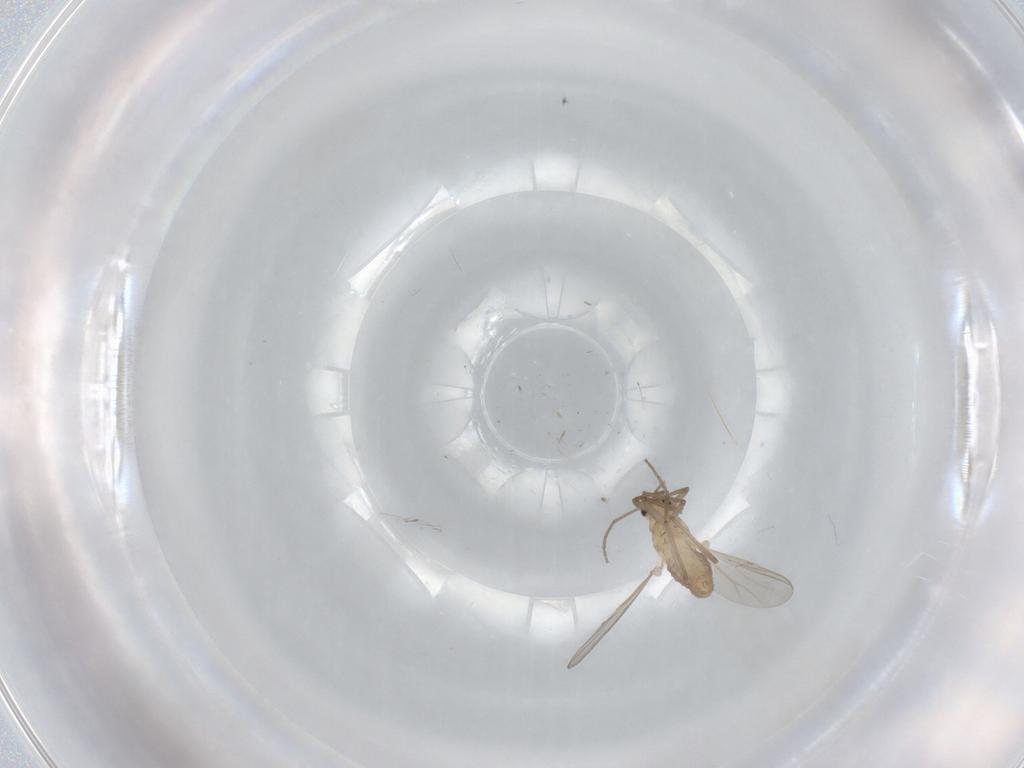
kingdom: Animalia
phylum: Arthropoda
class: Insecta
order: Diptera
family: Chironomidae
